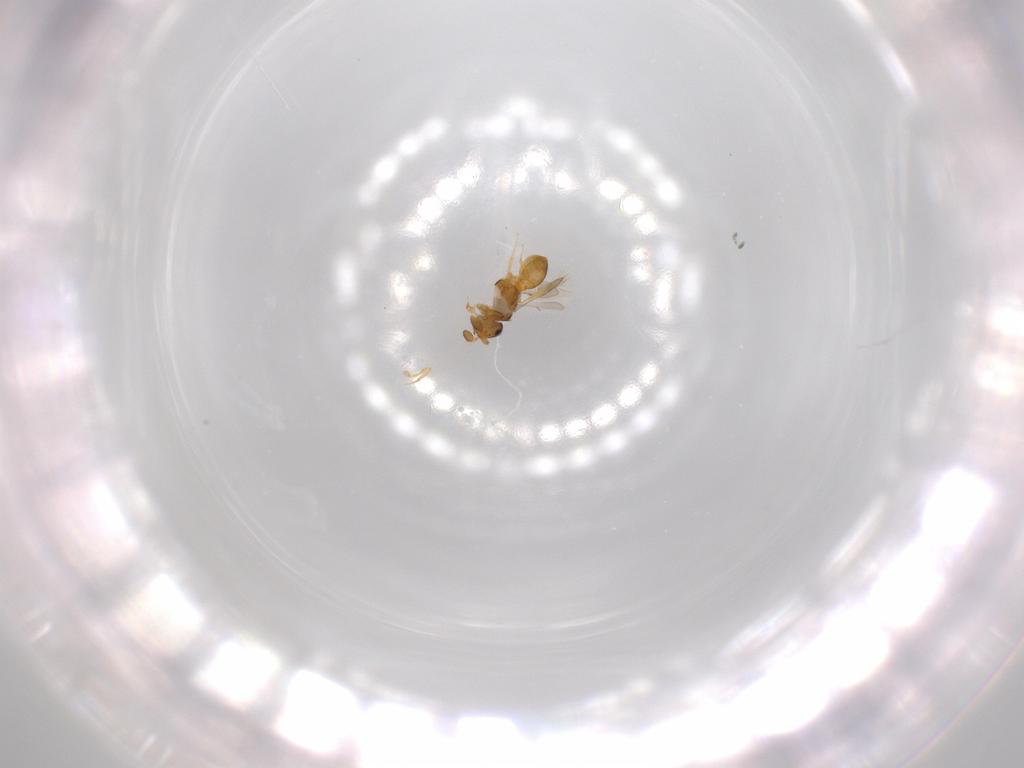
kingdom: Animalia
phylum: Arthropoda
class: Insecta
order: Hymenoptera
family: Scelionidae
